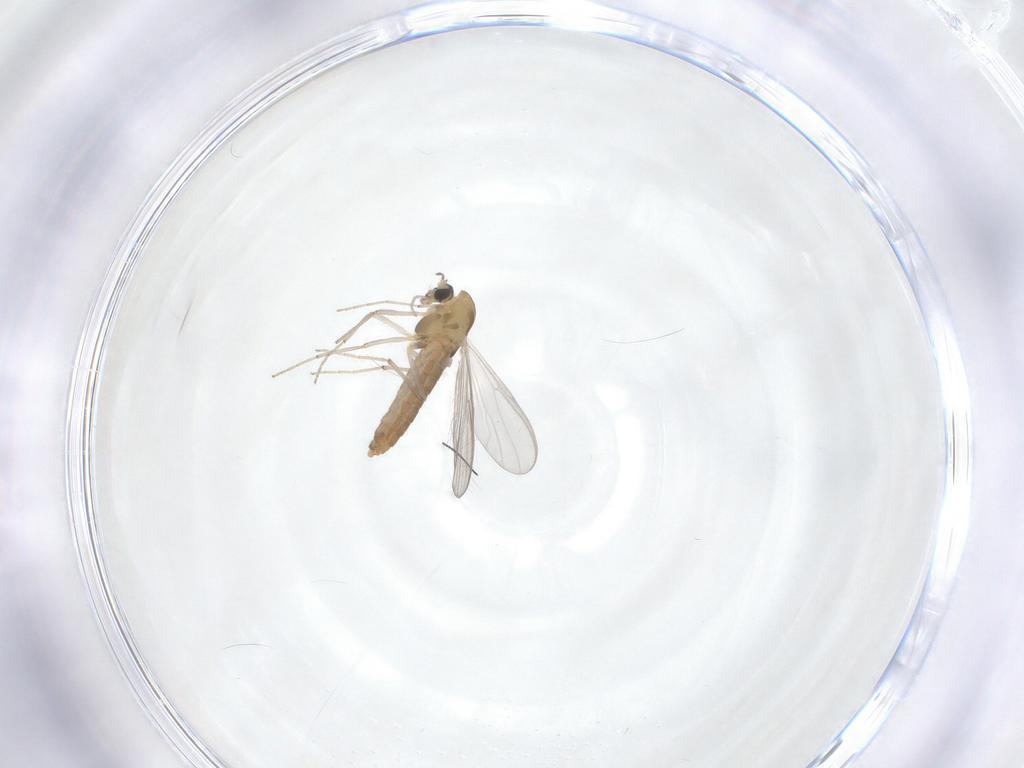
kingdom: Animalia
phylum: Arthropoda
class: Insecta
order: Diptera
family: Chironomidae
